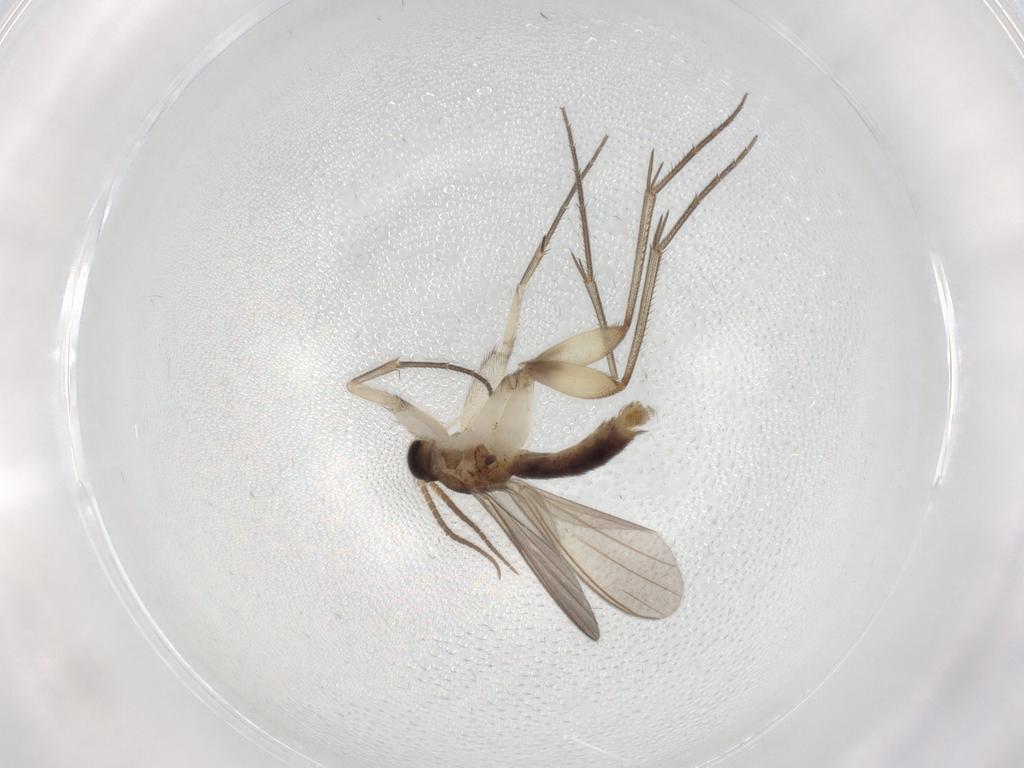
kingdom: Animalia
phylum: Arthropoda
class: Insecta
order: Diptera
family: Mycetophilidae
